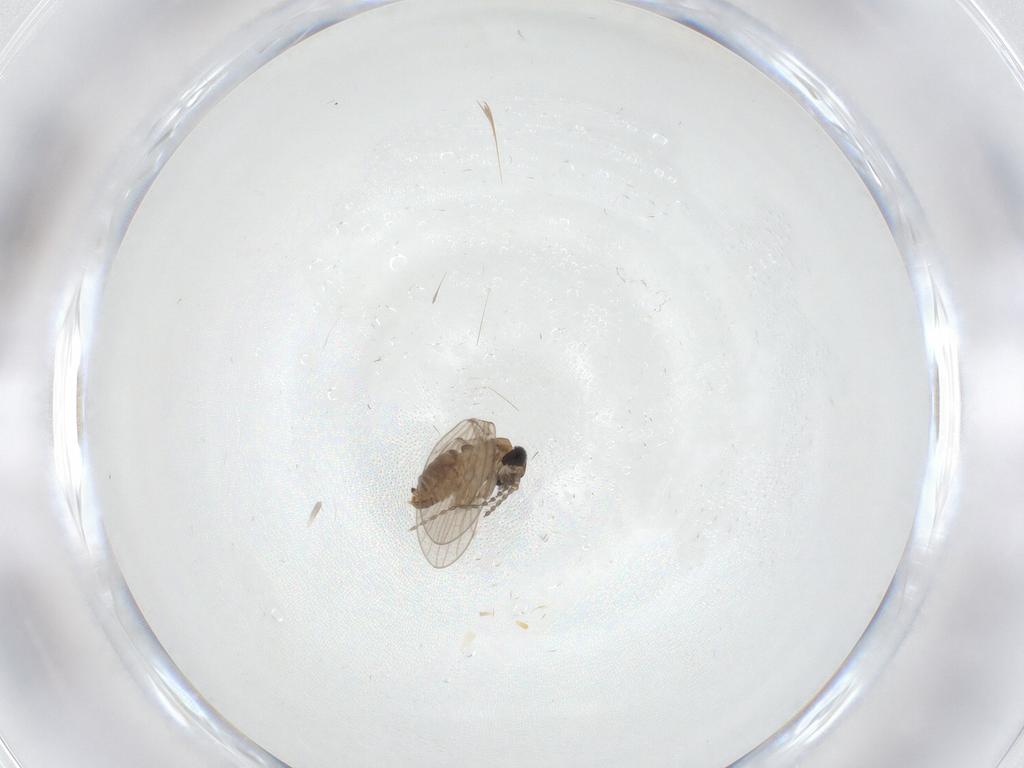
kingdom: Animalia
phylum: Arthropoda
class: Insecta
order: Diptera
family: Psychodidae
